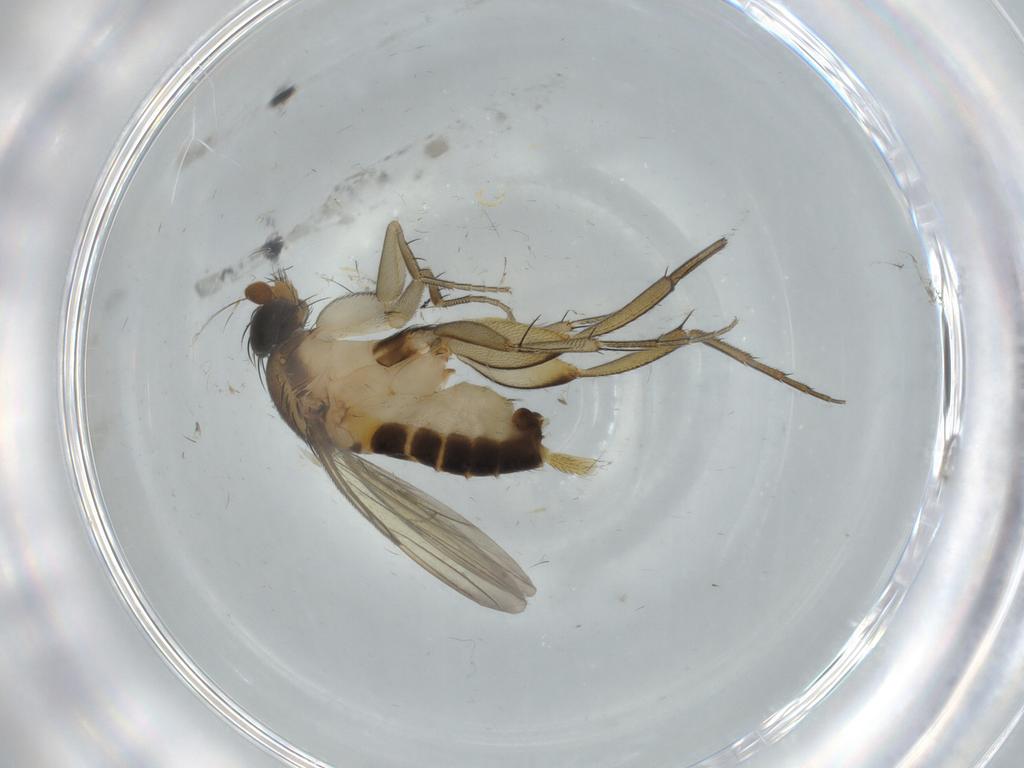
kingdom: Animalia
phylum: Arthropoda
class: Insecta
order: Diptera
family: Phoridae
